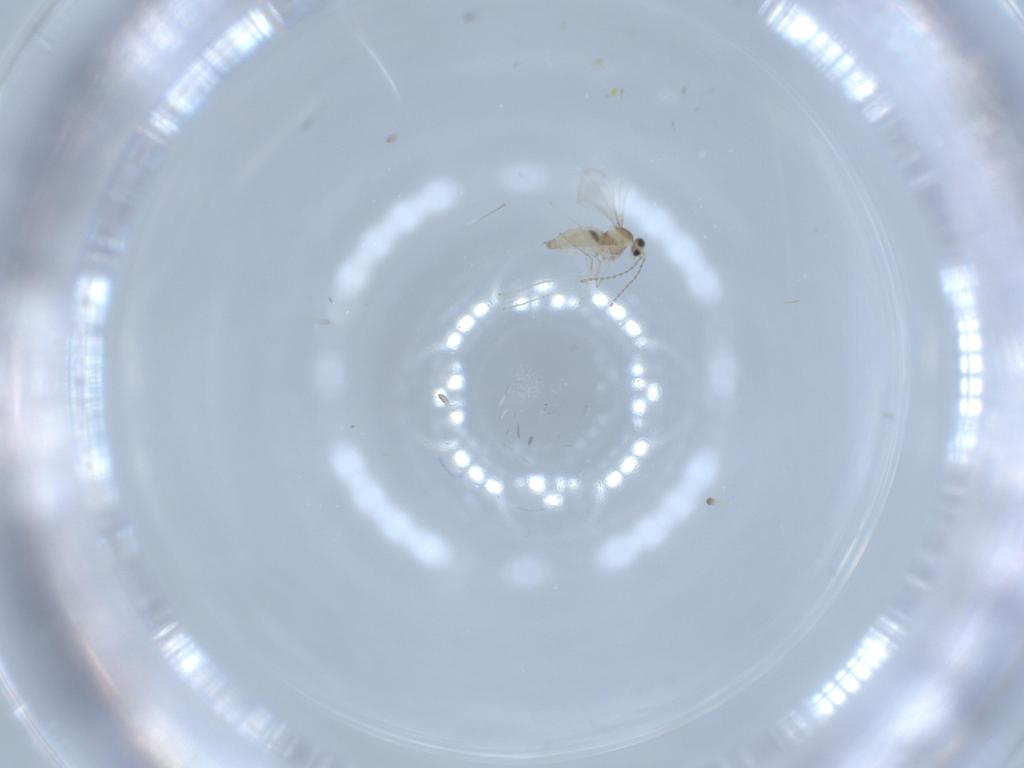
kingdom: Animalia
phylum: Arthropoda
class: Insecta
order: Diptera
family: Cecidomyiidae
